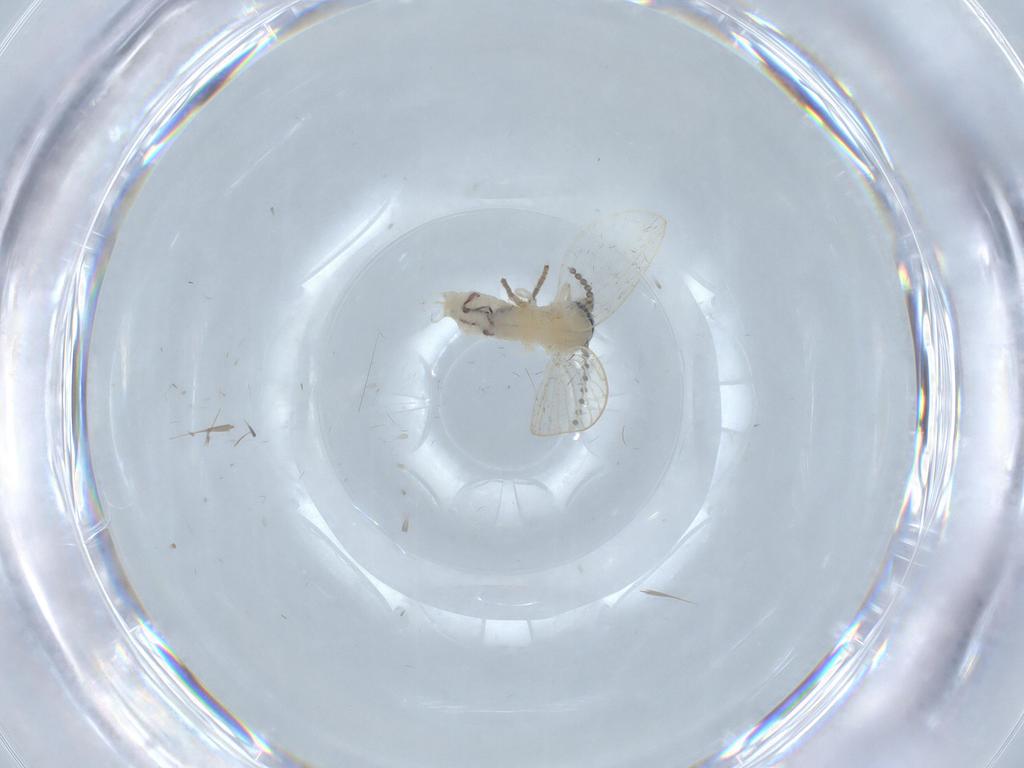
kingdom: Animalia
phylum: Arthropoda
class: Insecta
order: Diptera
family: Psychodidae
